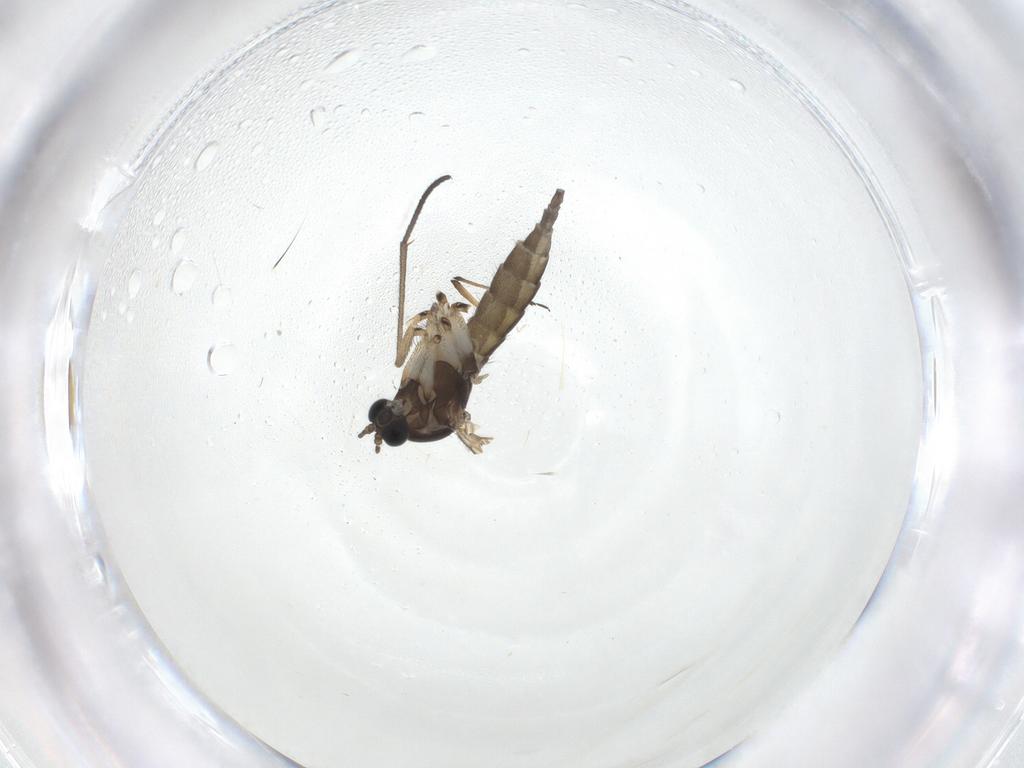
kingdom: Animalia
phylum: Arthropoda
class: Insecta
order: Diptera
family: Sciaridae
